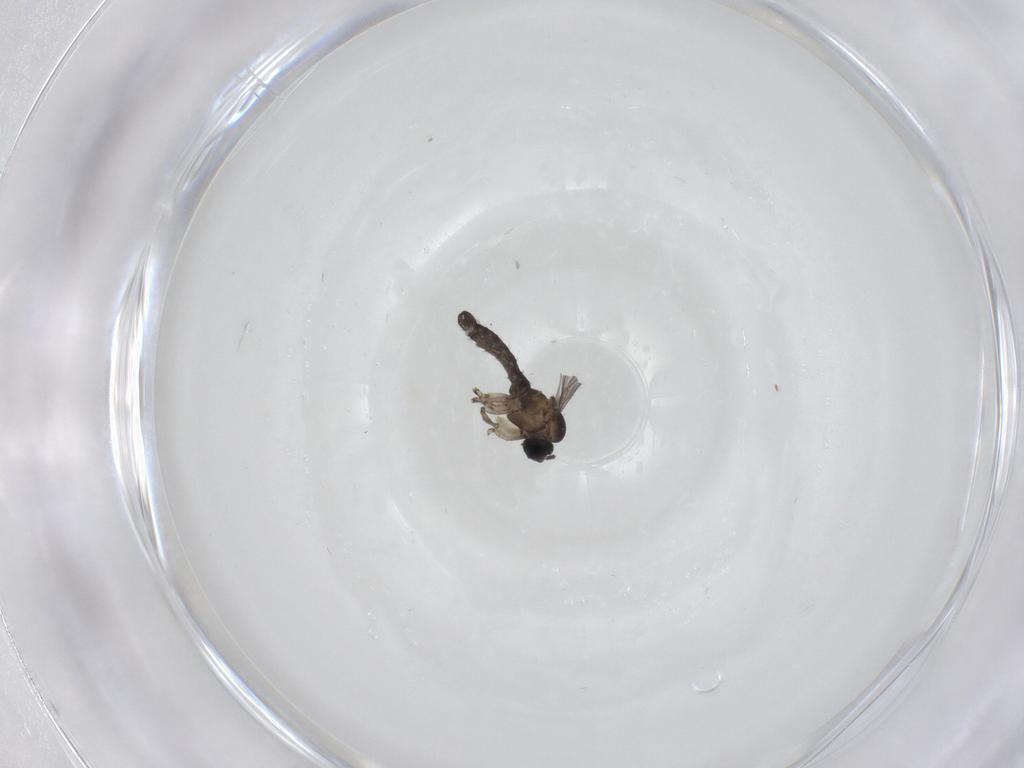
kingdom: Animalia
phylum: Arthropoda
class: Insecta
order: Diptera
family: Sciaridae
